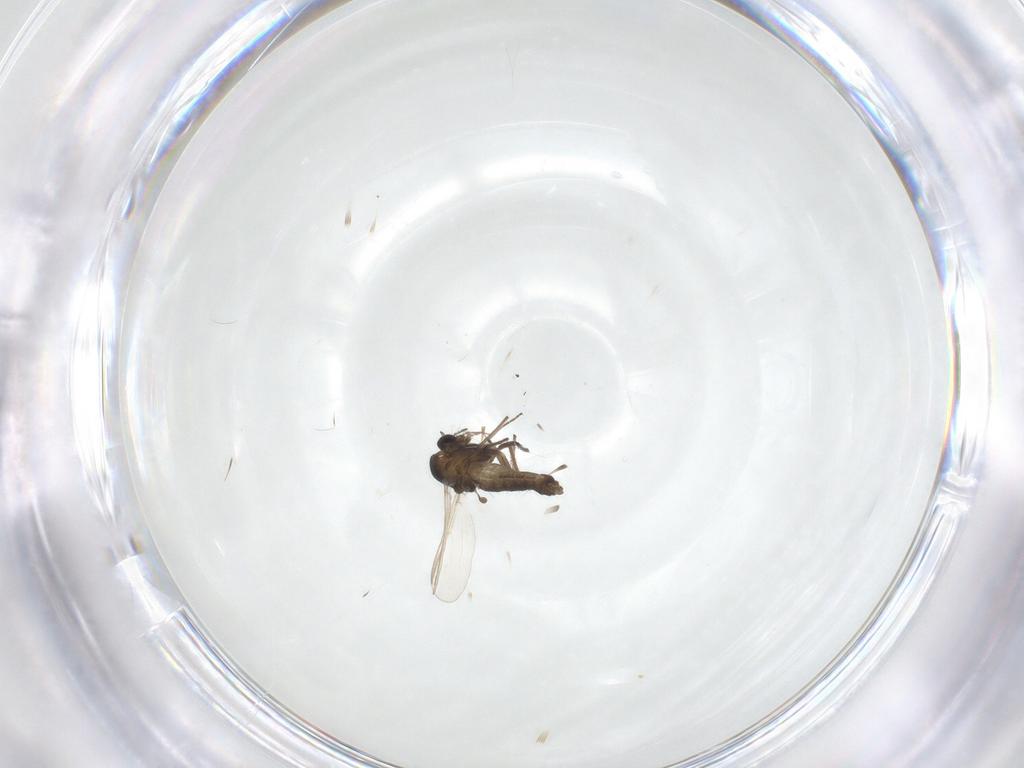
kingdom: Animalia
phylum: Arthropoda
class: Insecta
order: Diptera
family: Chironomidae
